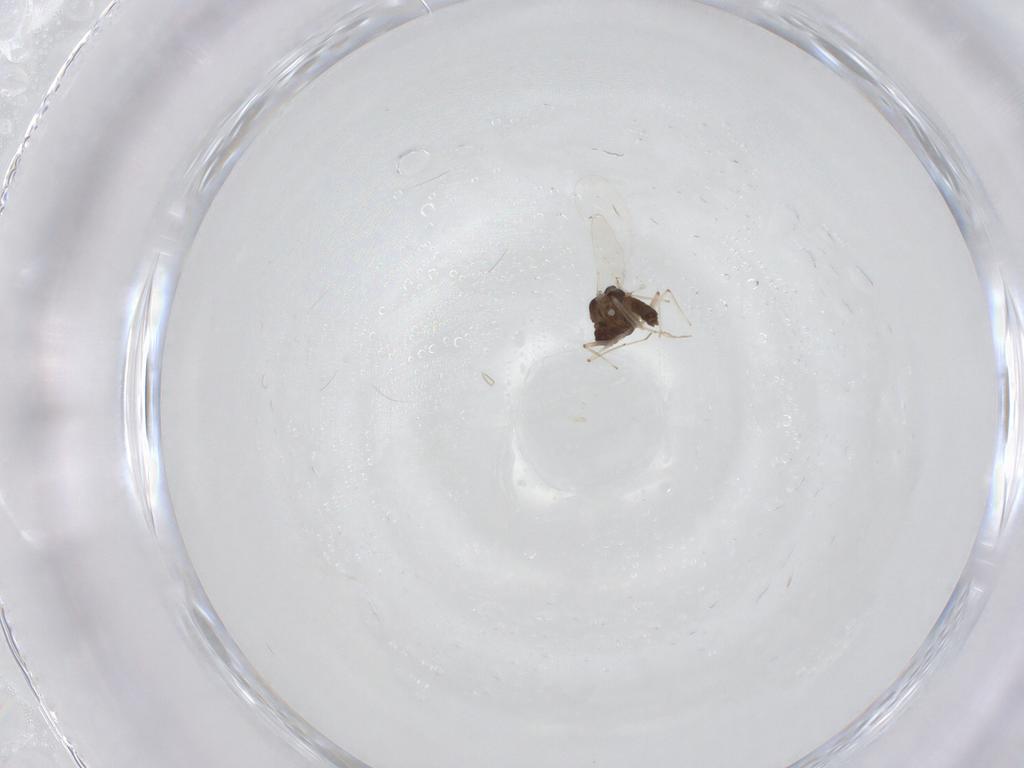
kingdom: Animalia
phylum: Arthropoda
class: Insecta
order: Diptera
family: Chironomidae
